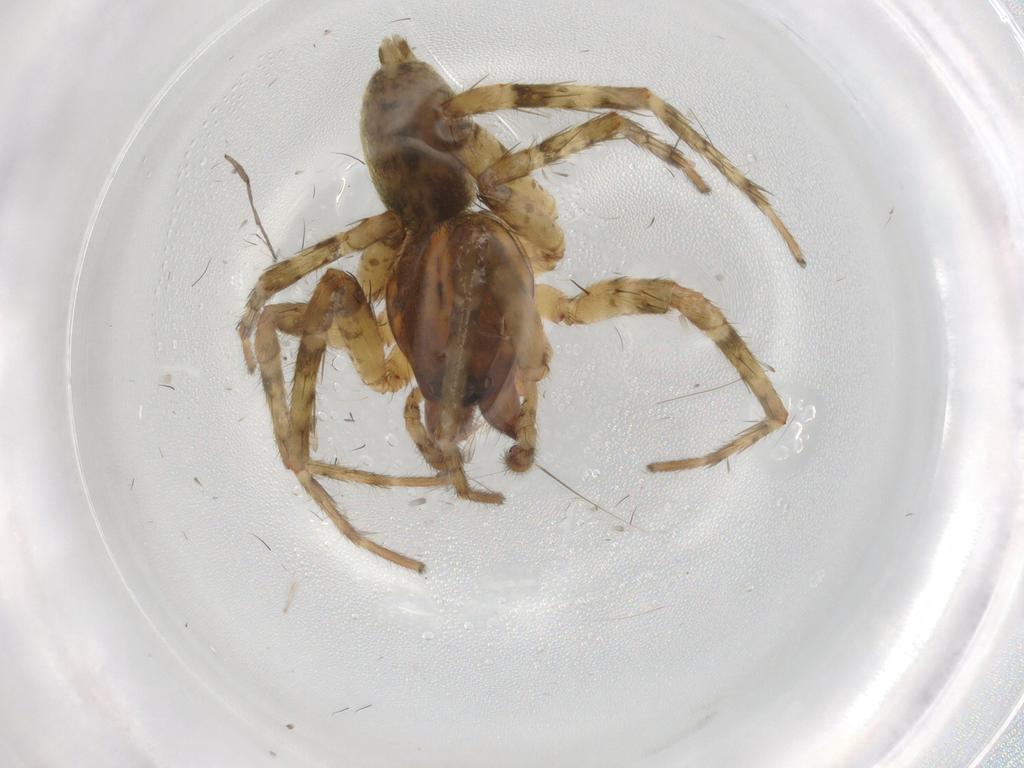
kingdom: Animalia
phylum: Arthropoda
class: Arachnida
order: Araneae
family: Anyphaenidae
